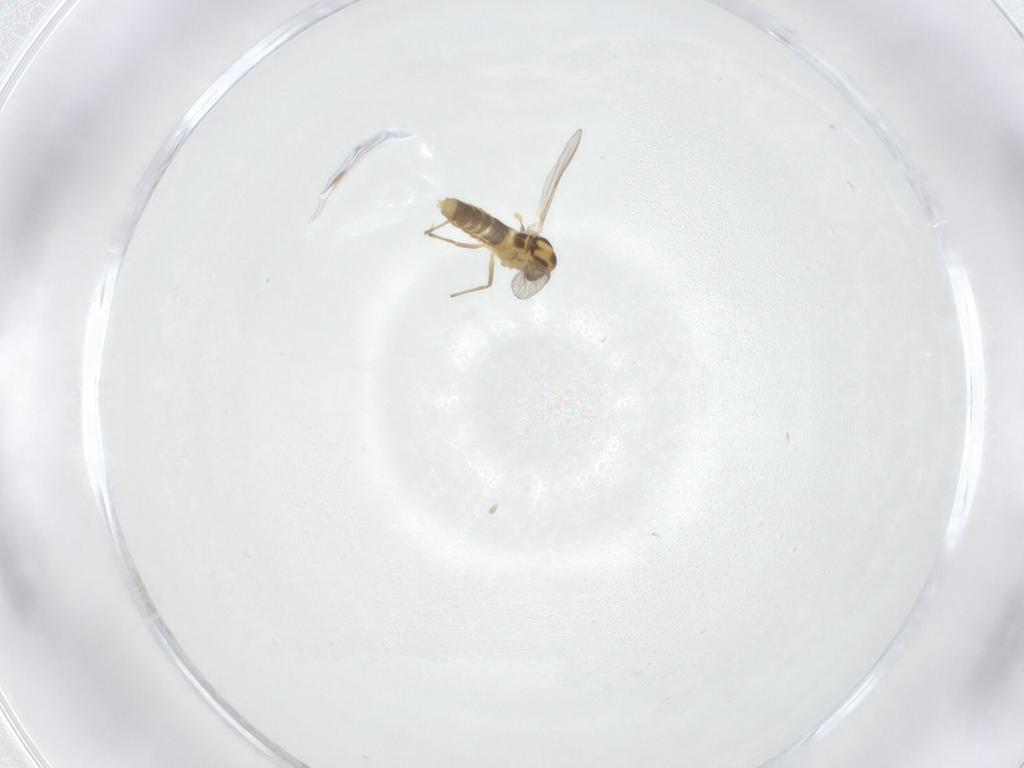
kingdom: Animalia
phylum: Arthropoda
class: Insecta
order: Diptera
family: Chironomidae
